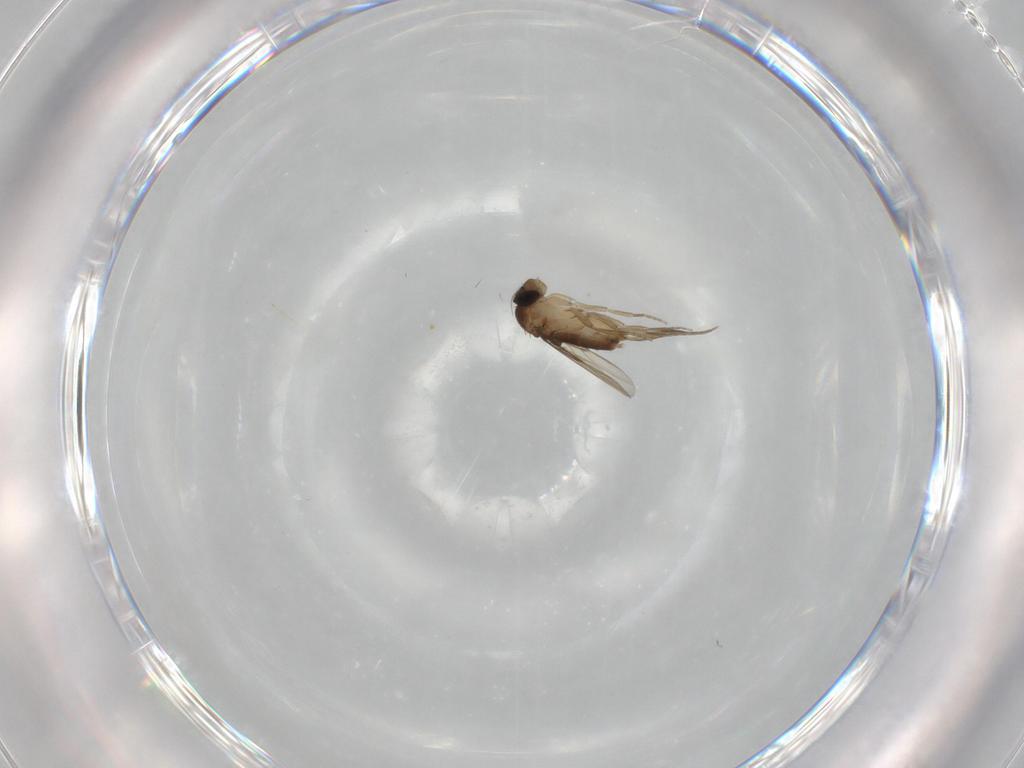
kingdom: Animalia
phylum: Arthropoda
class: Insecta
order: Diptera
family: Phoridae
